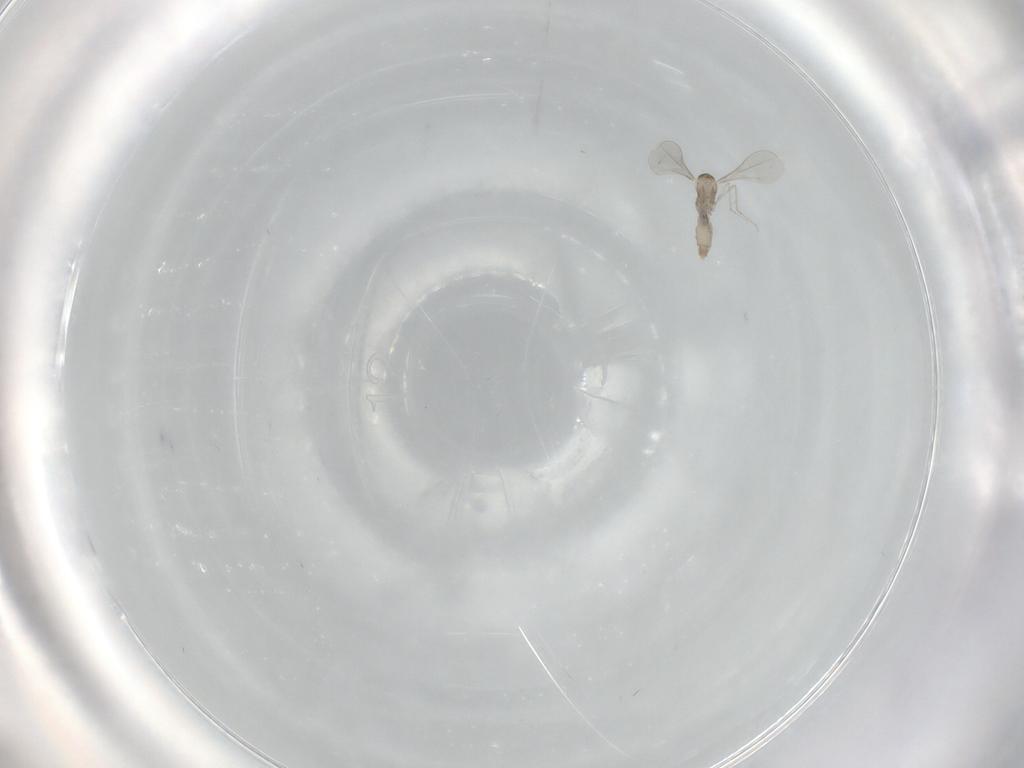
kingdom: Animalia
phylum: Arthropoda
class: Insecta
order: Diptera
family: Cecidomyiidae
